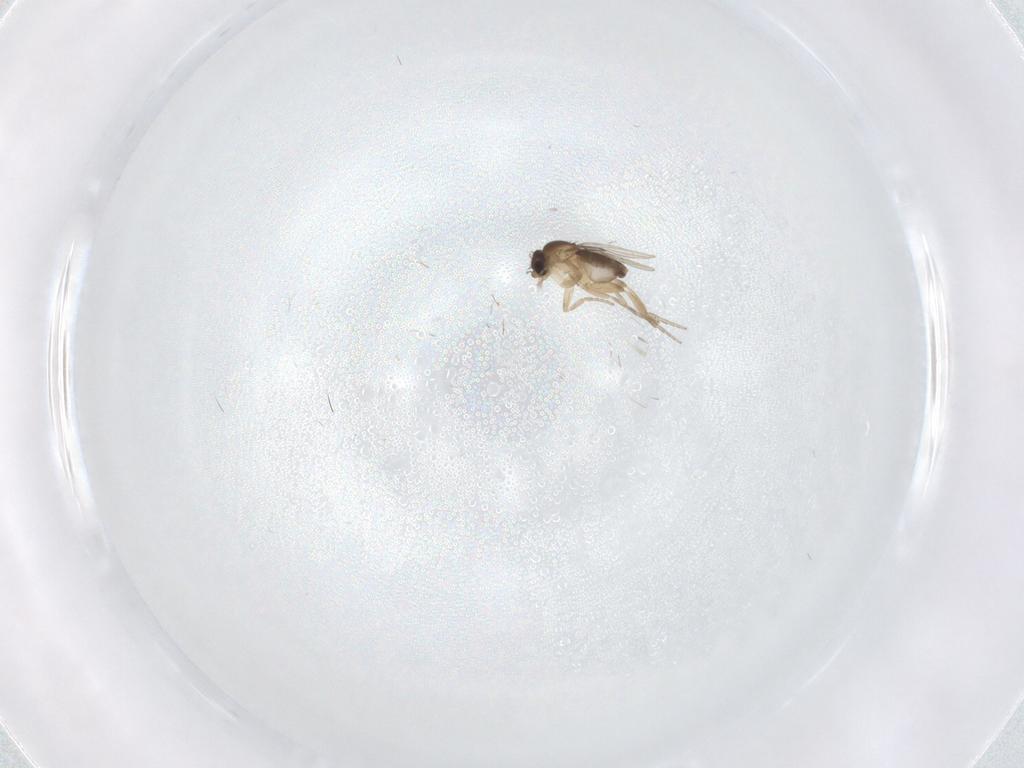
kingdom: Animalia
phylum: Arthropoda
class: Insecta
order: Diptera
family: Phoridae
